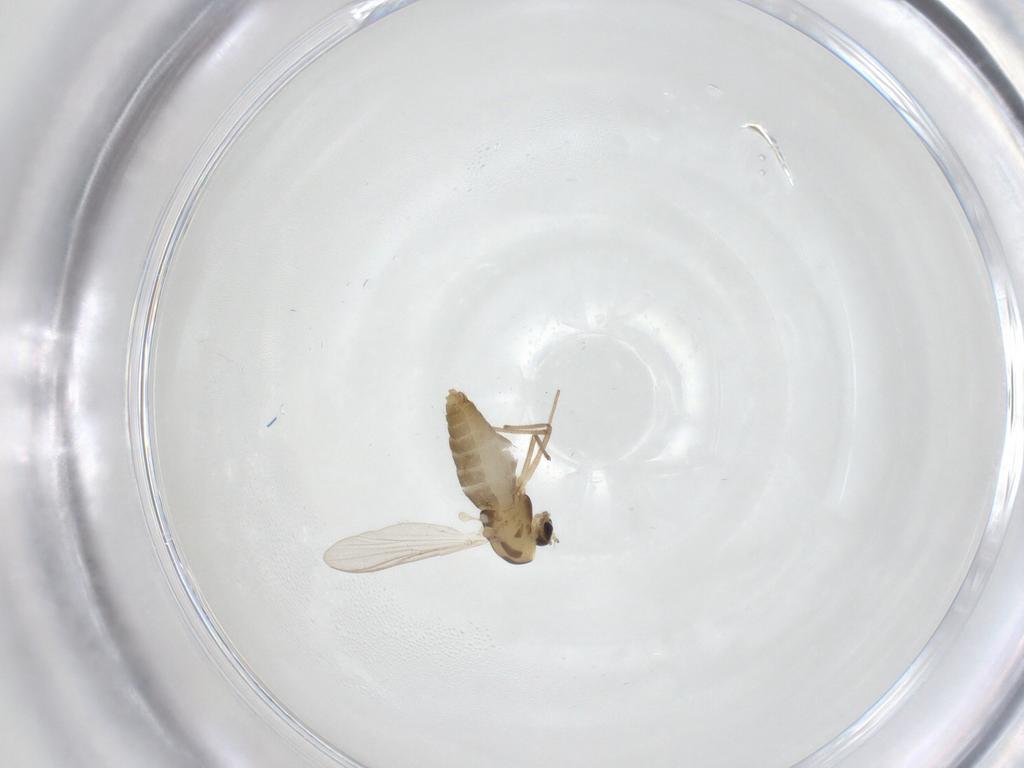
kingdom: Animalia
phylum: Arthropoda
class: Insecta
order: Diptera
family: Chironomidae
